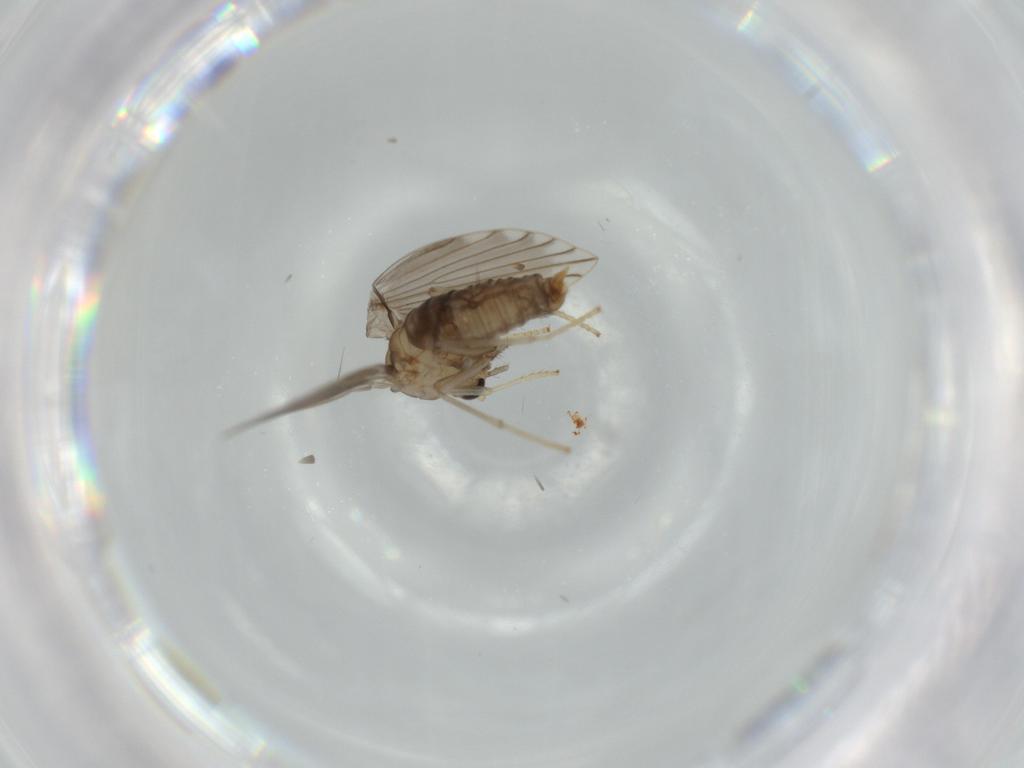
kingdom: Animalia
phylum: Arthropoda
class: Insecta
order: Diptera
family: Psychodidae
